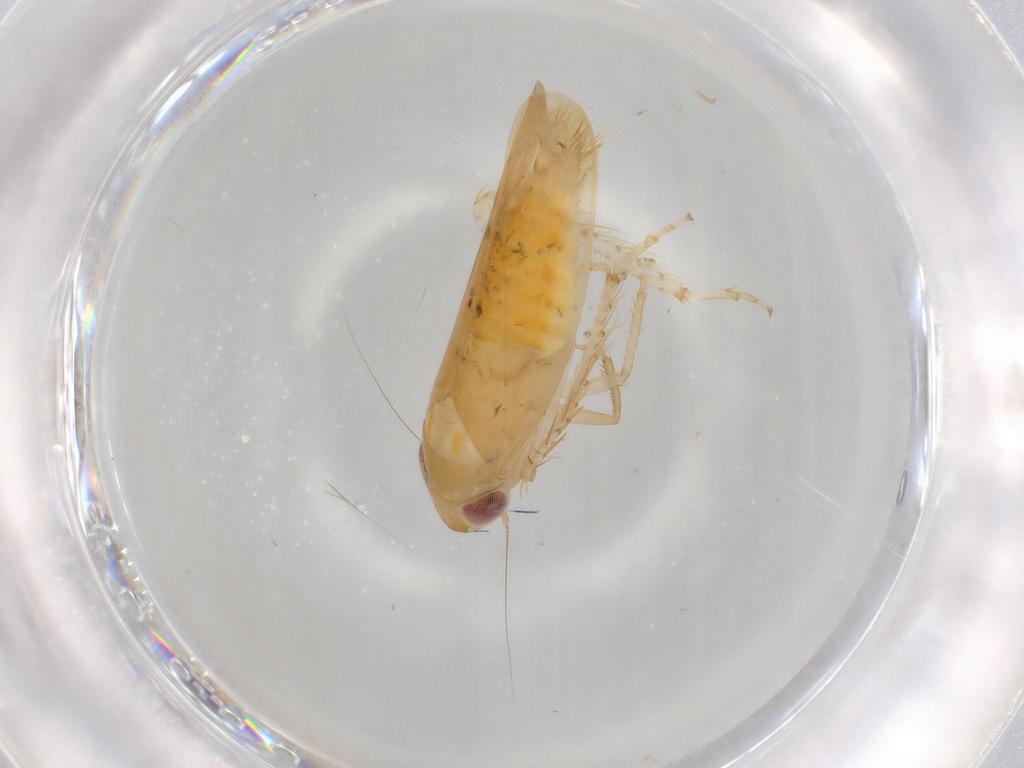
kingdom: Animalia
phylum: Arthropoda
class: Insecta
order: Hemiptera
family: Cicadellidae
